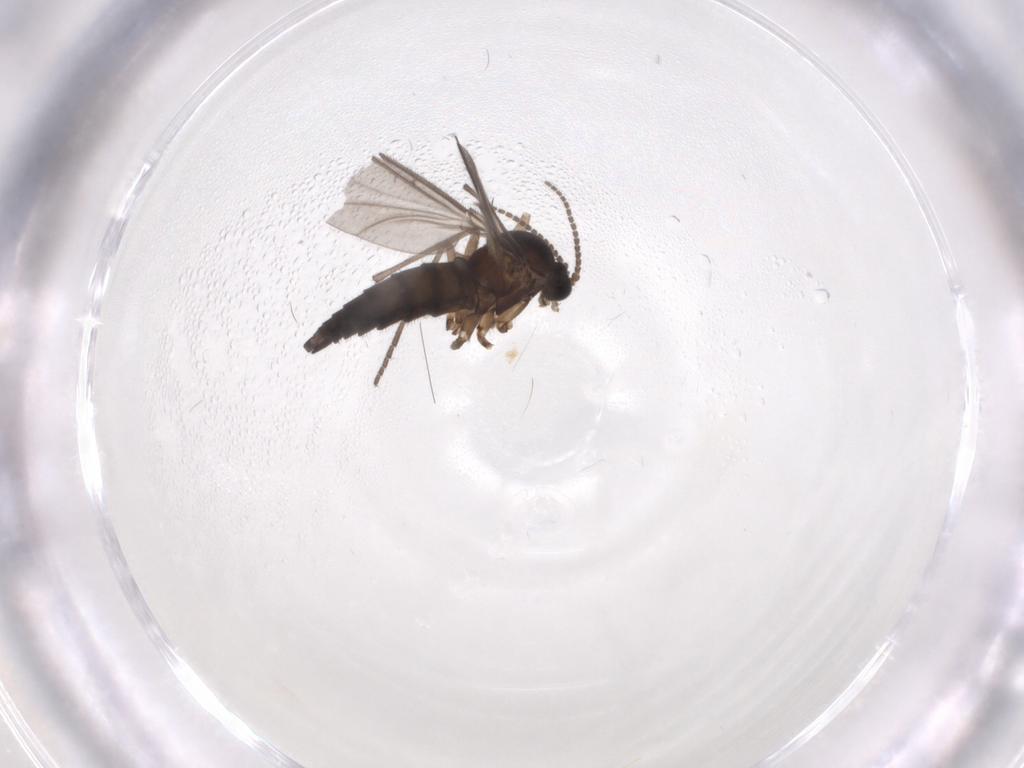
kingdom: Animalia
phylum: Arthropoda
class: Insecta
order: Diptera
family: Sciaridae
